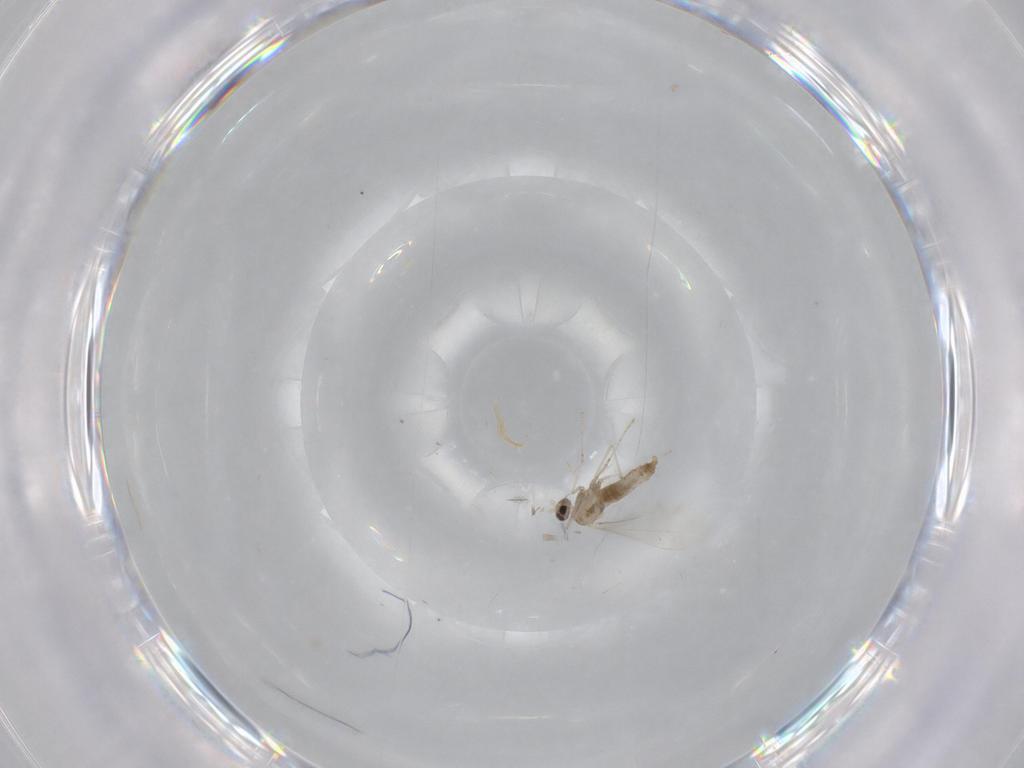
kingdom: Animalia
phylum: Arthropoda
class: Insecta
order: Diptera
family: Cecidomyiidae
